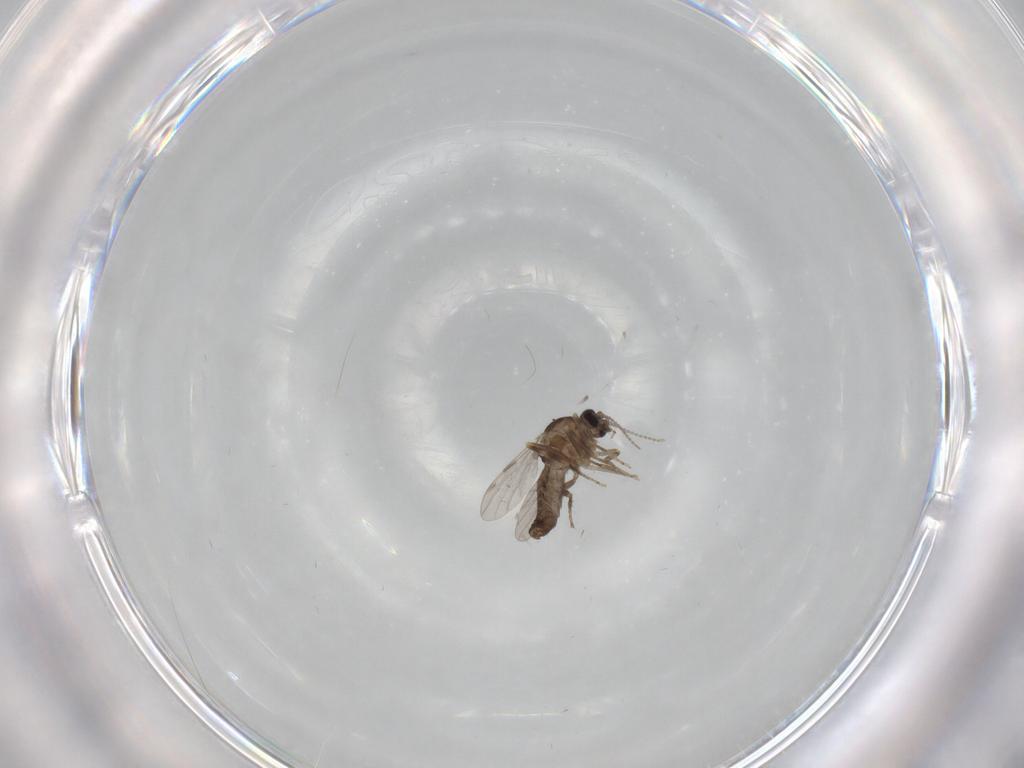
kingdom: Animalia
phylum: Arthropoda
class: Insecta
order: Diptera
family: Ceratopogonidae
